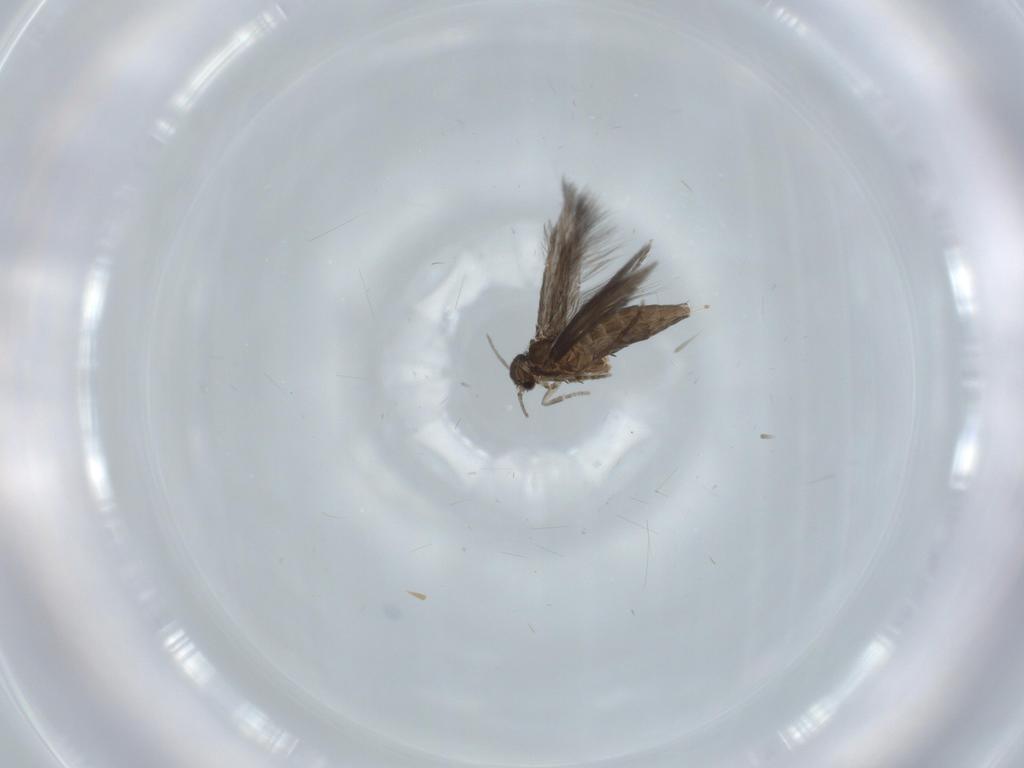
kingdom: Animalia
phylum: Arthropoda
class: Insecta
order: Trichoptera
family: Hydroptilidae
